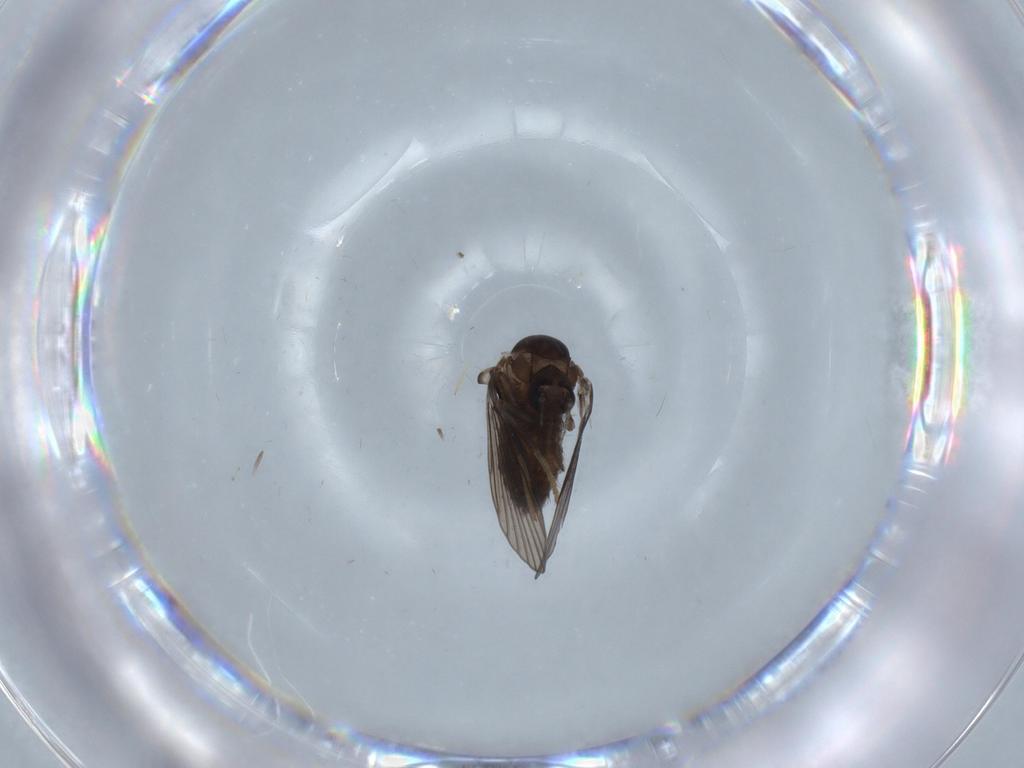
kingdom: Animalia
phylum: Arthropoda
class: Insecta
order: Diptera
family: Psychodidae
